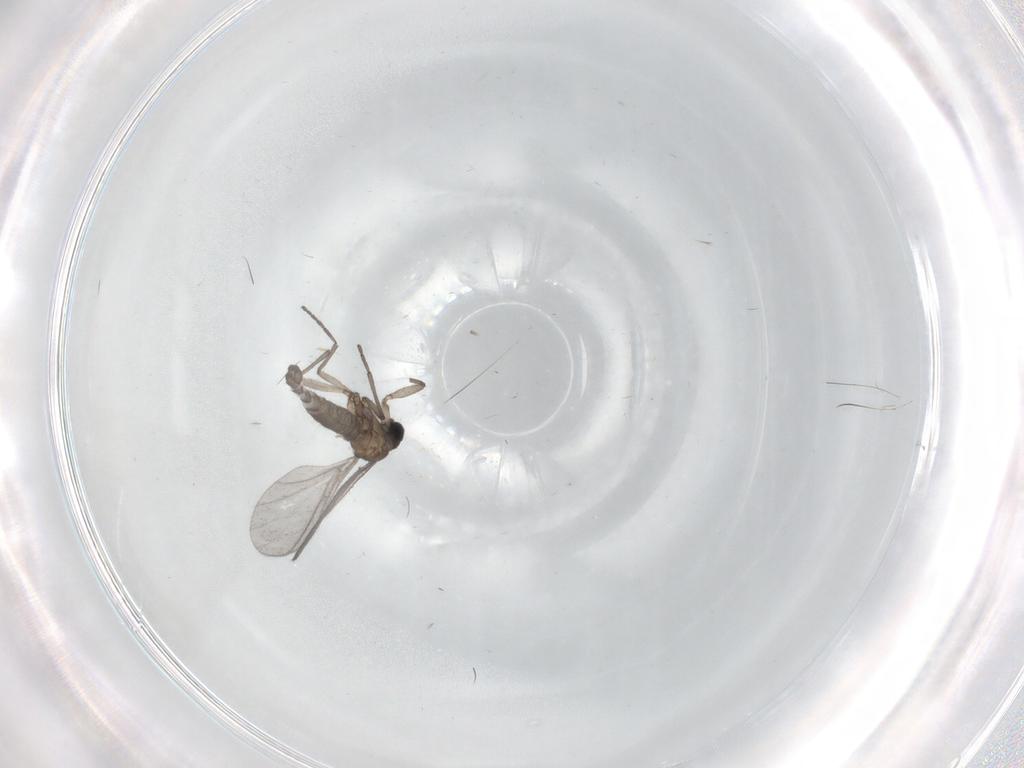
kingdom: Animalia
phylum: Arthropoda
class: Insecta
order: Diptera
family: Sciaridae
